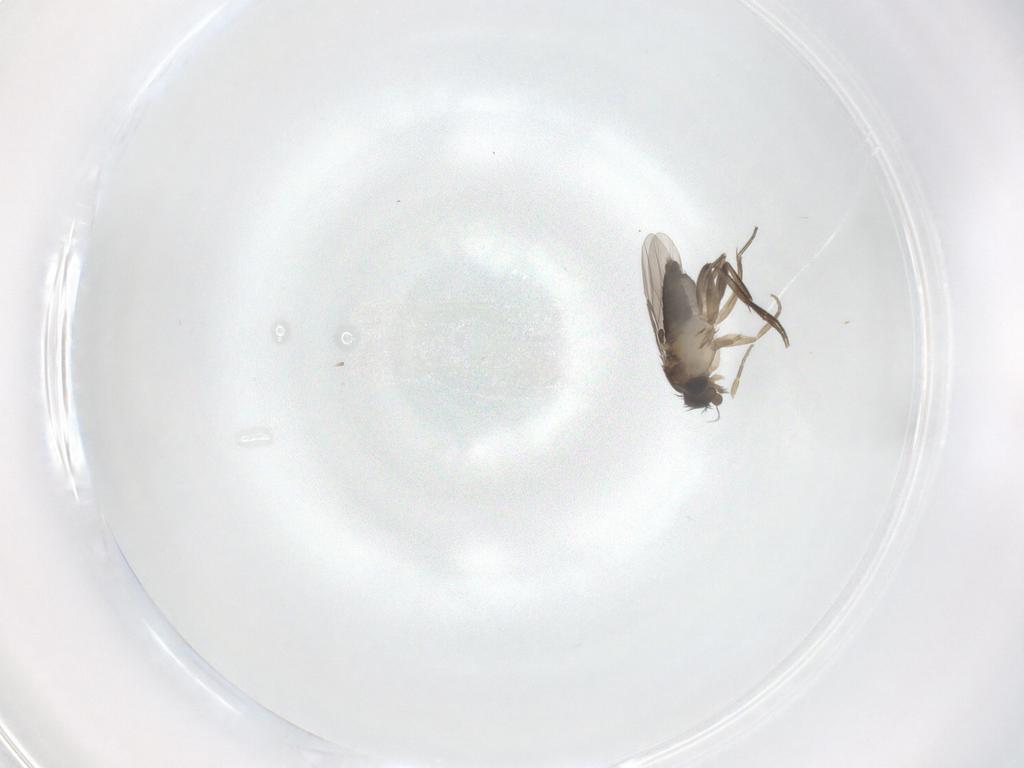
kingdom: Animalia
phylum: Arthropoda
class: Insecta
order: Diptera
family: Phoridae
